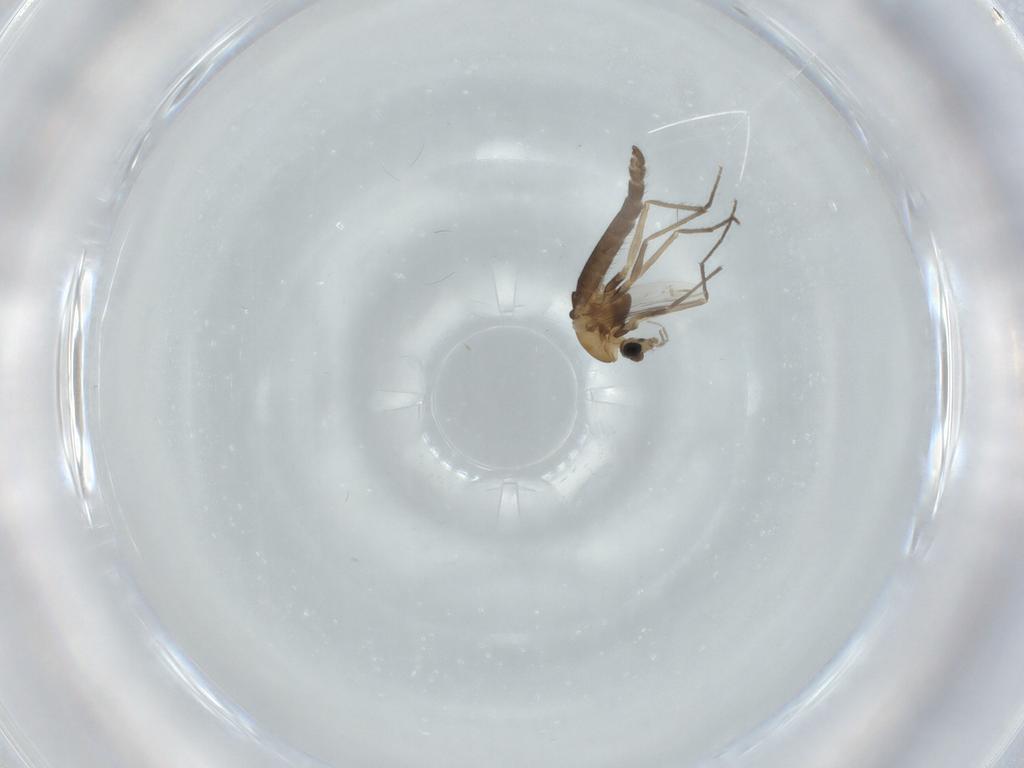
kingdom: Animalia
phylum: Arthropoda
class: Insecta
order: Diptera
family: Chironomidae
